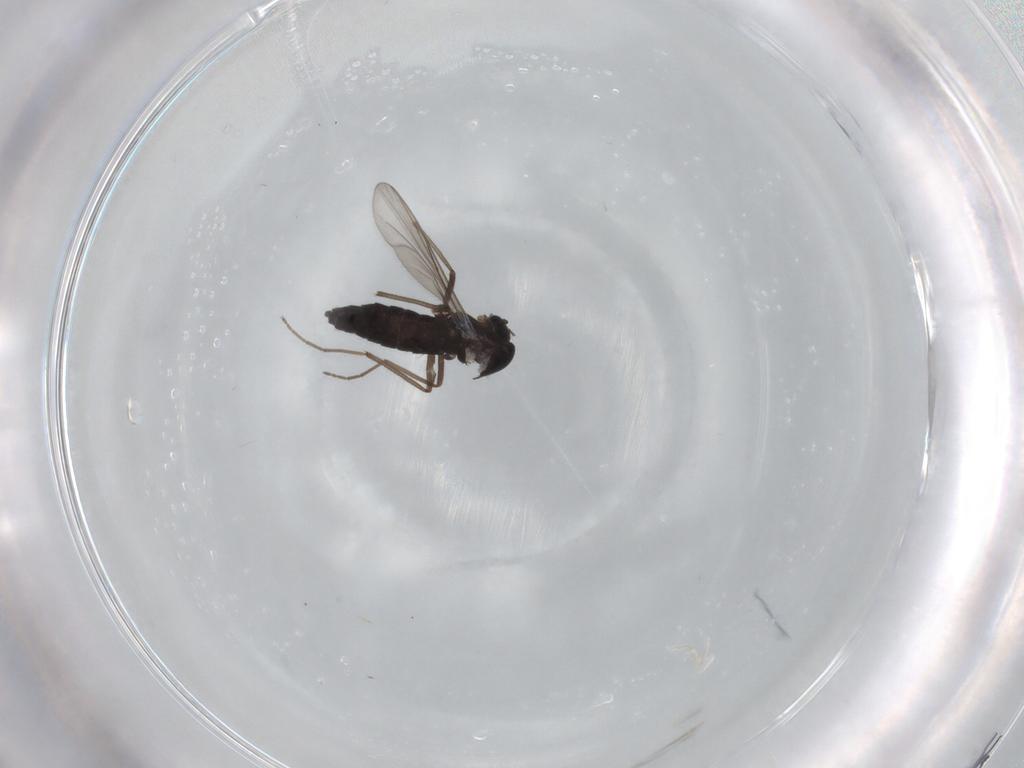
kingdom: Animalia
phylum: Arthropoda
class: Insecta
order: Diptera
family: Chironomidae
